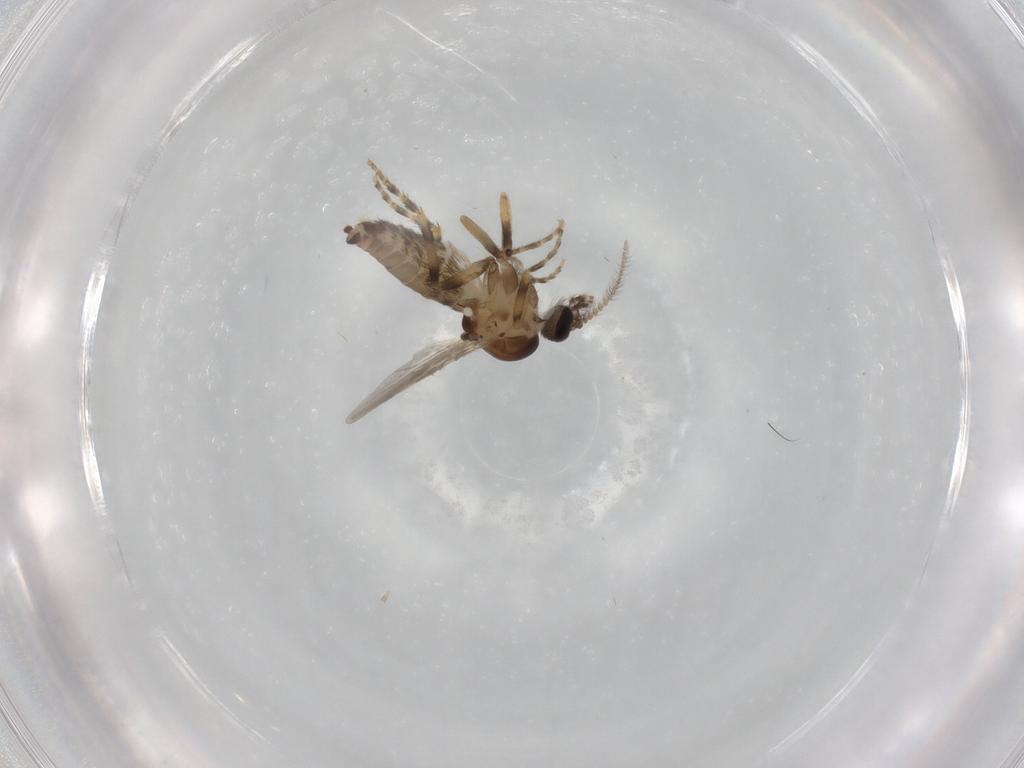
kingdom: Animalia
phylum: Arthropoda
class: Insecta
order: Diptera
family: Ceratopogonidae
